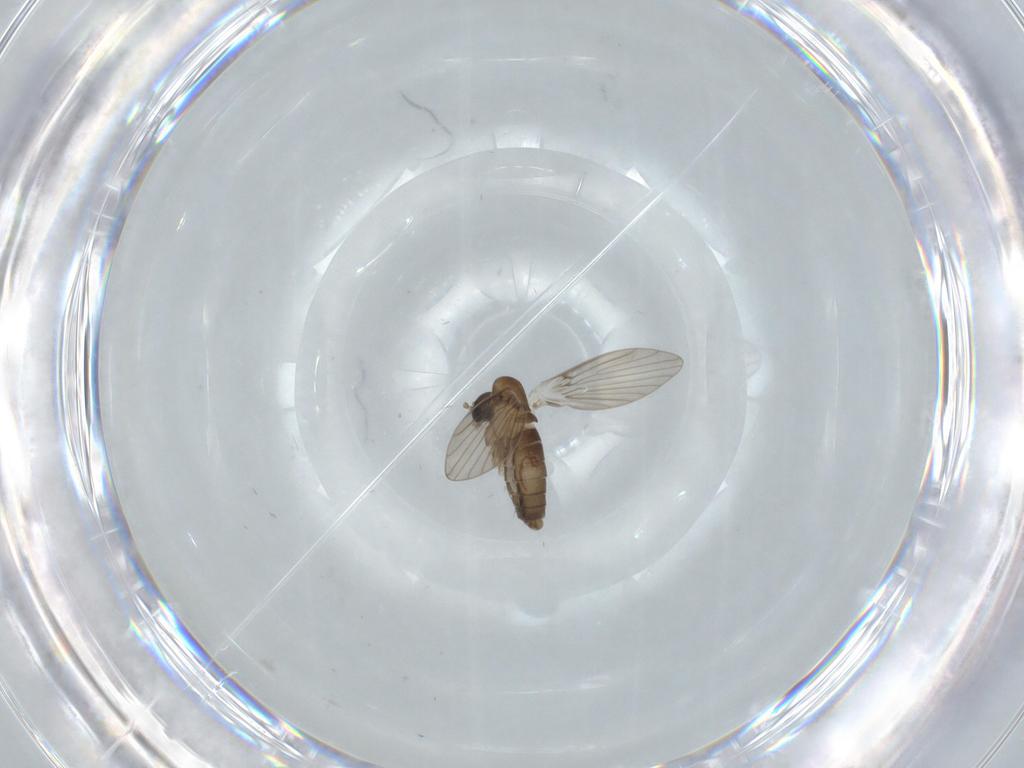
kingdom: Animalia
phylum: Arthropoda
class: Insecta
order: Diptera
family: Psychodidae
